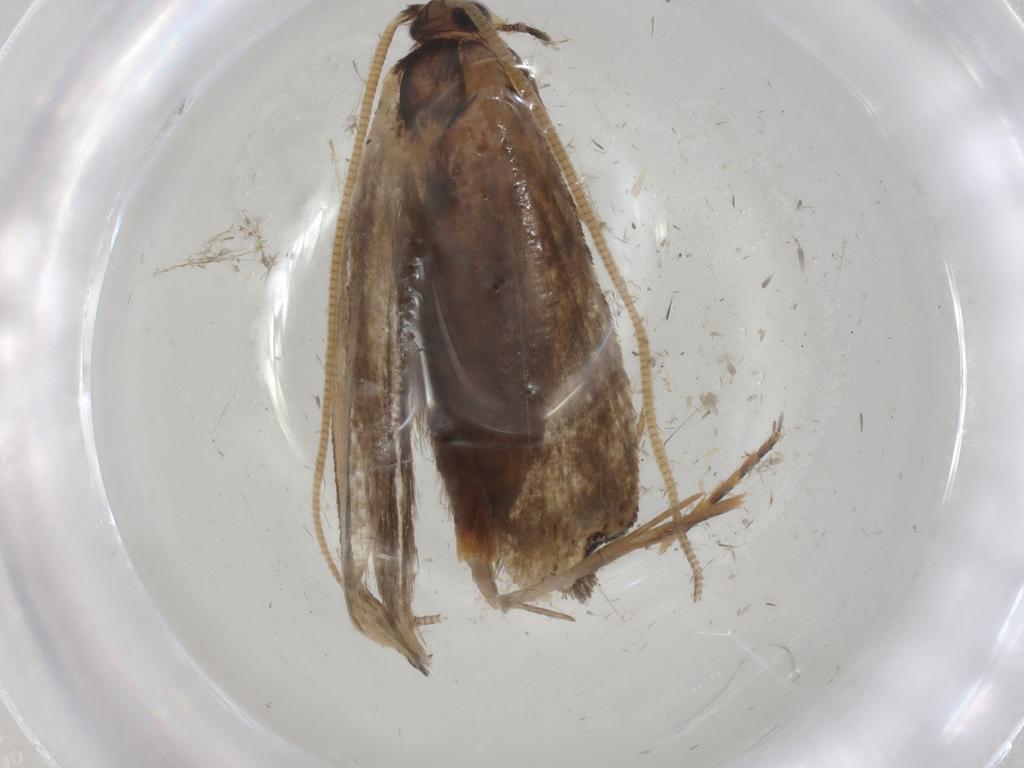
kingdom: Animalia
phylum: Arthropoda
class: Insecta
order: Lepidoptera
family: Tineidae
